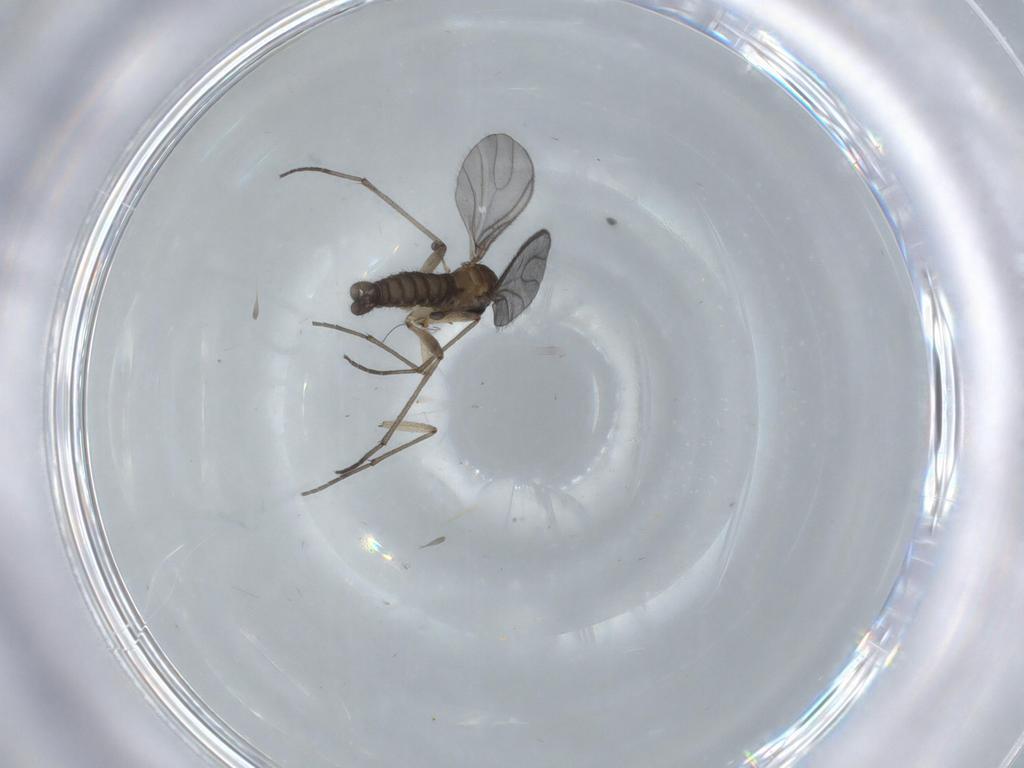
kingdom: Animalia
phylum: Arthropoda
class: Insecta
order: Diptera
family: Sciaridae
